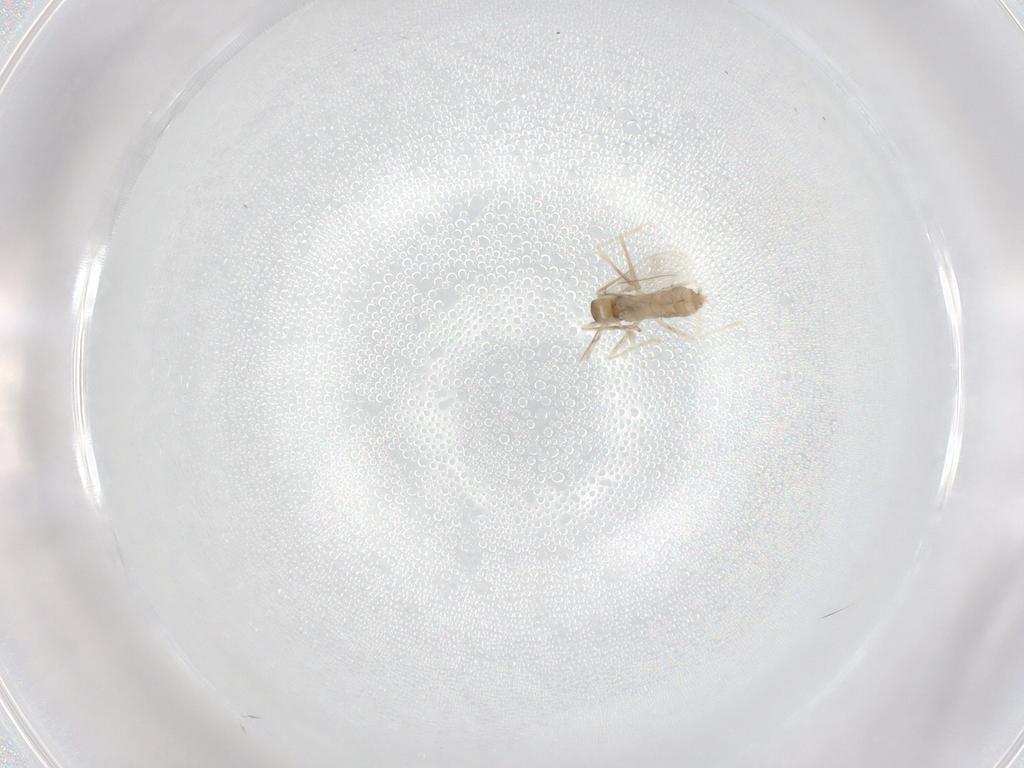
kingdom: Animalia
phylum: Arthropoda
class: Insecta
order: Diptera
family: Cecidomyiidae
